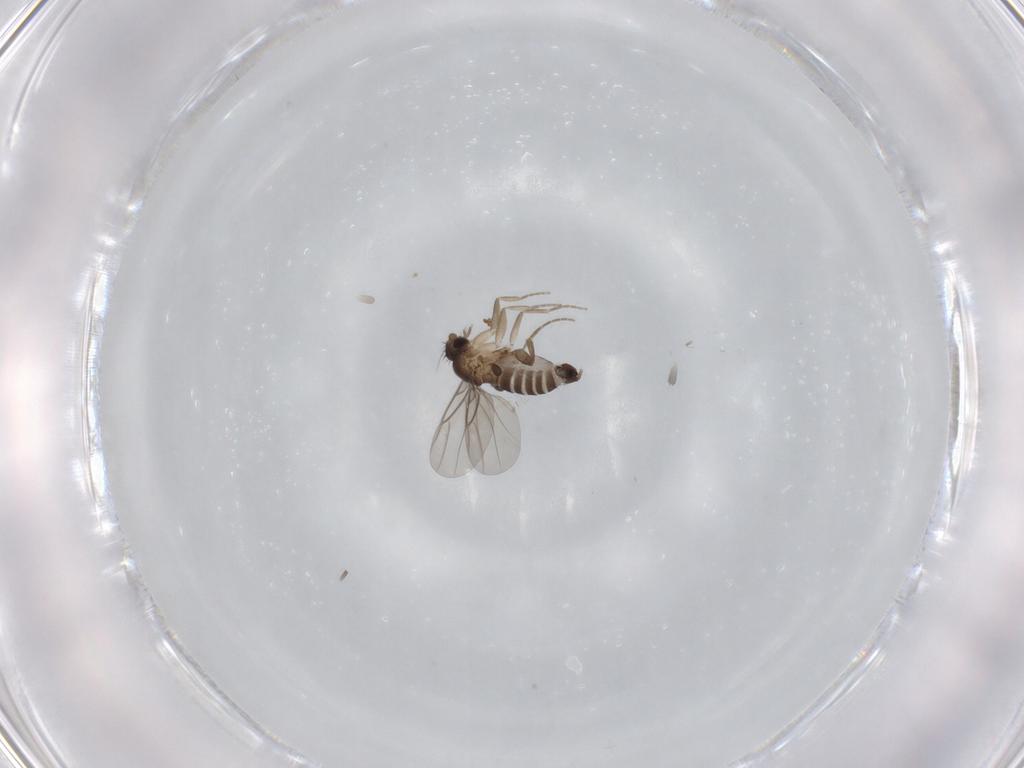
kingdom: Animalia
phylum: Arthropoda
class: Insecta
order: Diptera
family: Phoridae
